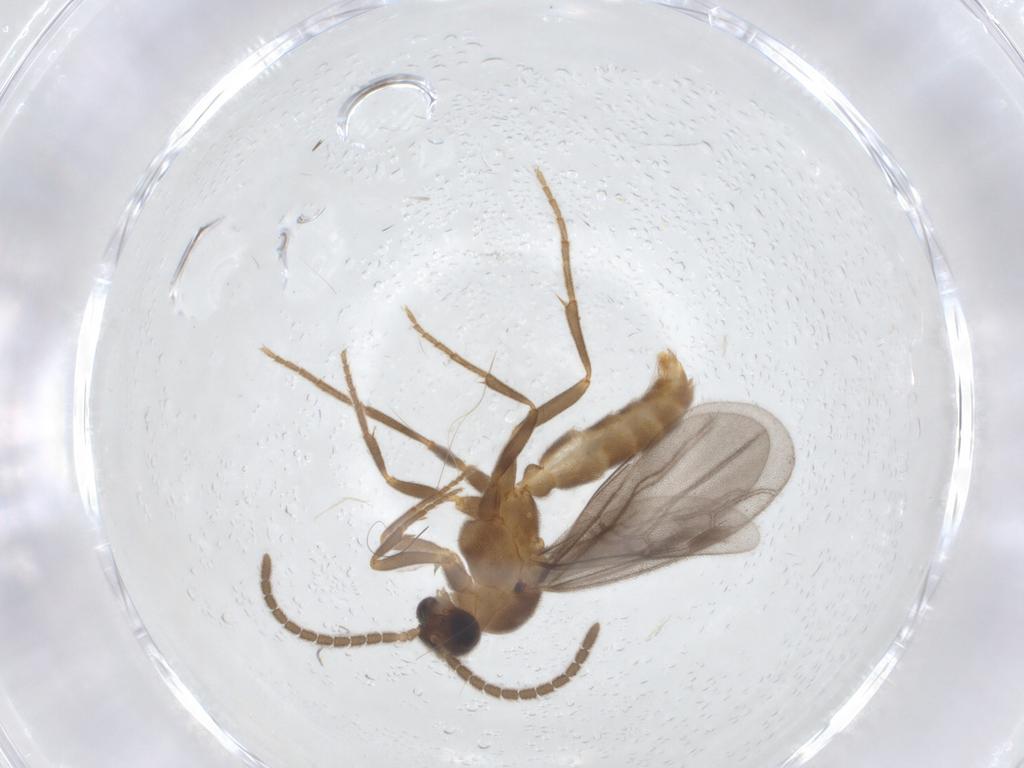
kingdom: Animalia
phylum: Arthropoda
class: Insecta
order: Hymenoptera
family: Formicidae
